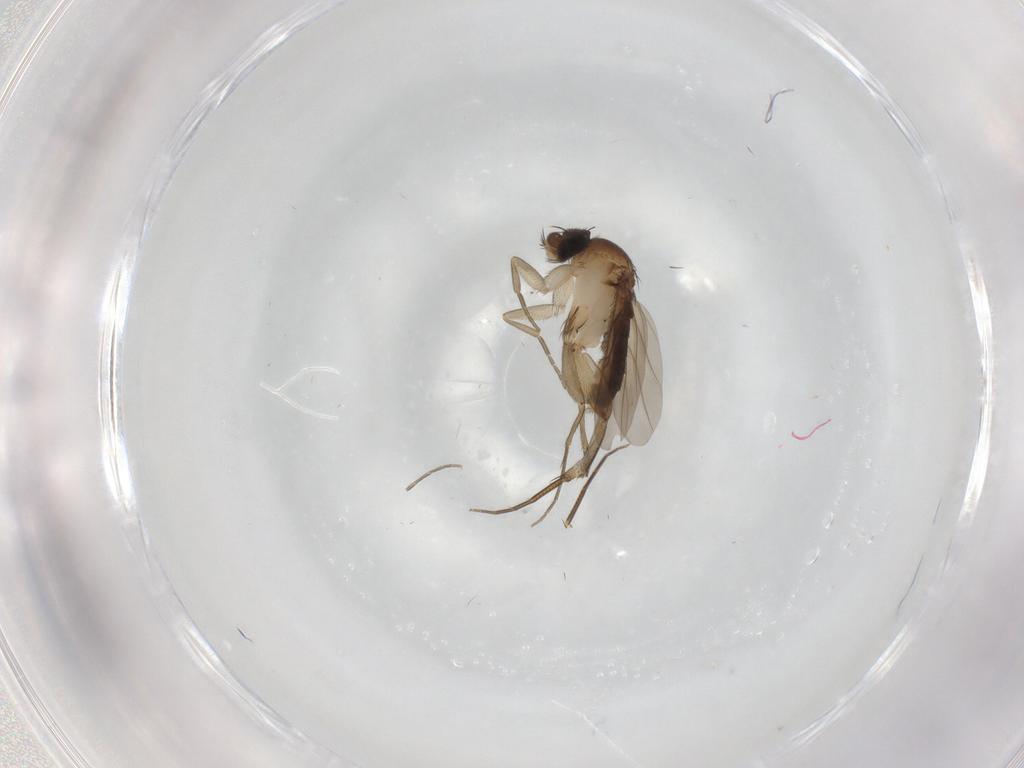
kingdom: Animalia
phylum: Arthropoda
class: Insecta
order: Diptera
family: Phoridae
